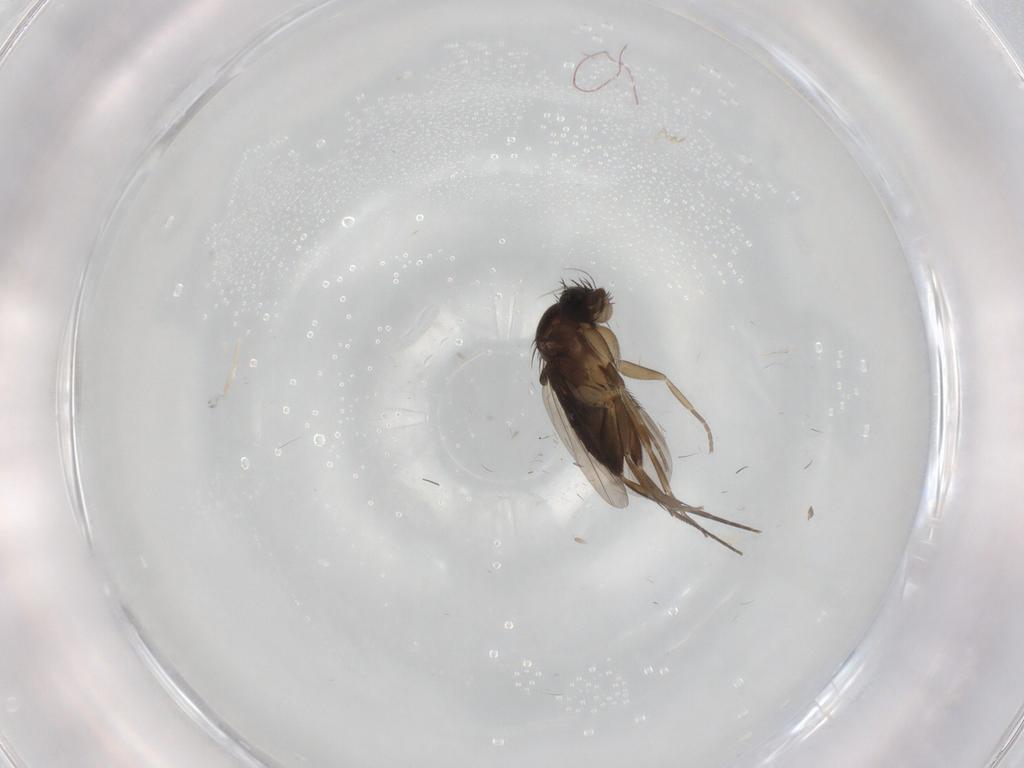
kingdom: Animalia
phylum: Arthropoda
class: Insecta
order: Diptera
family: Phoridae
